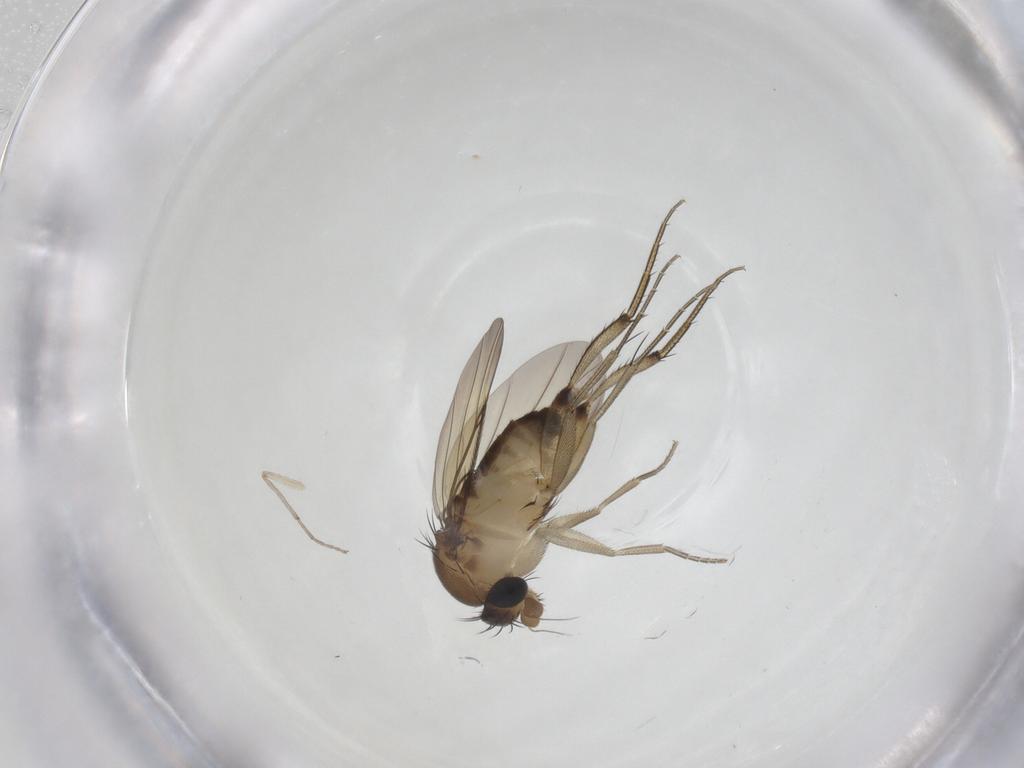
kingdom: Animalia
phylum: Arthropoda
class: Insecta
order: Diptera
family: Phoridae
